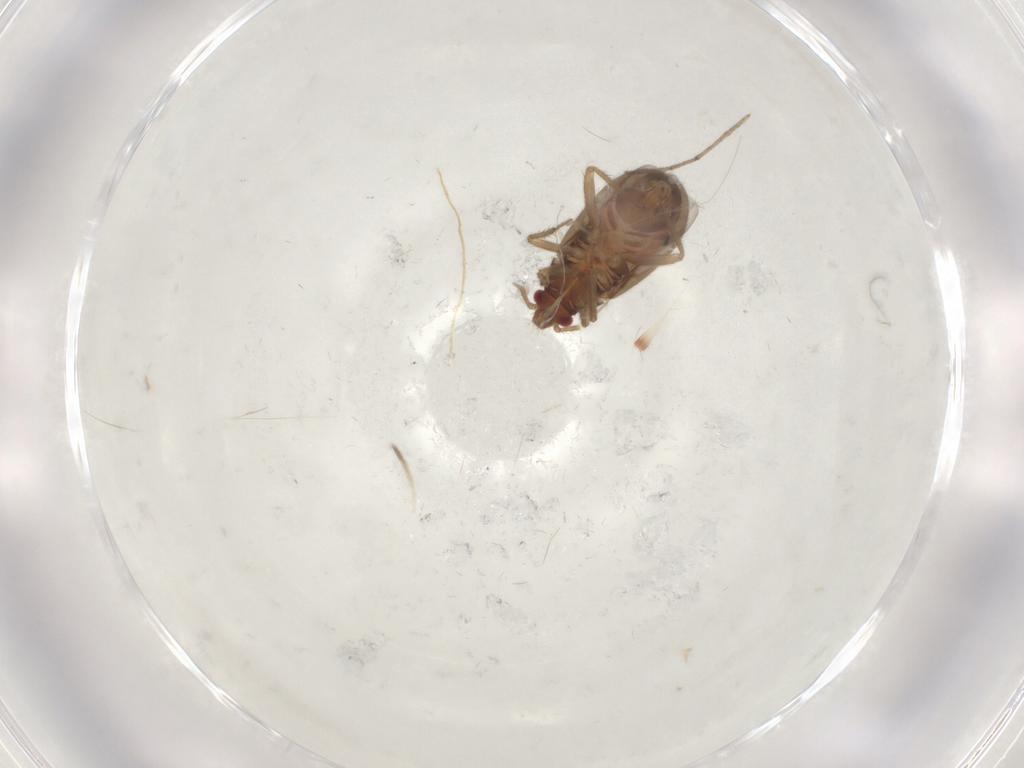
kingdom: Animalia
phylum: Arthropoda
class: Insecta
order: Hemiptera
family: Ceratocombidae
